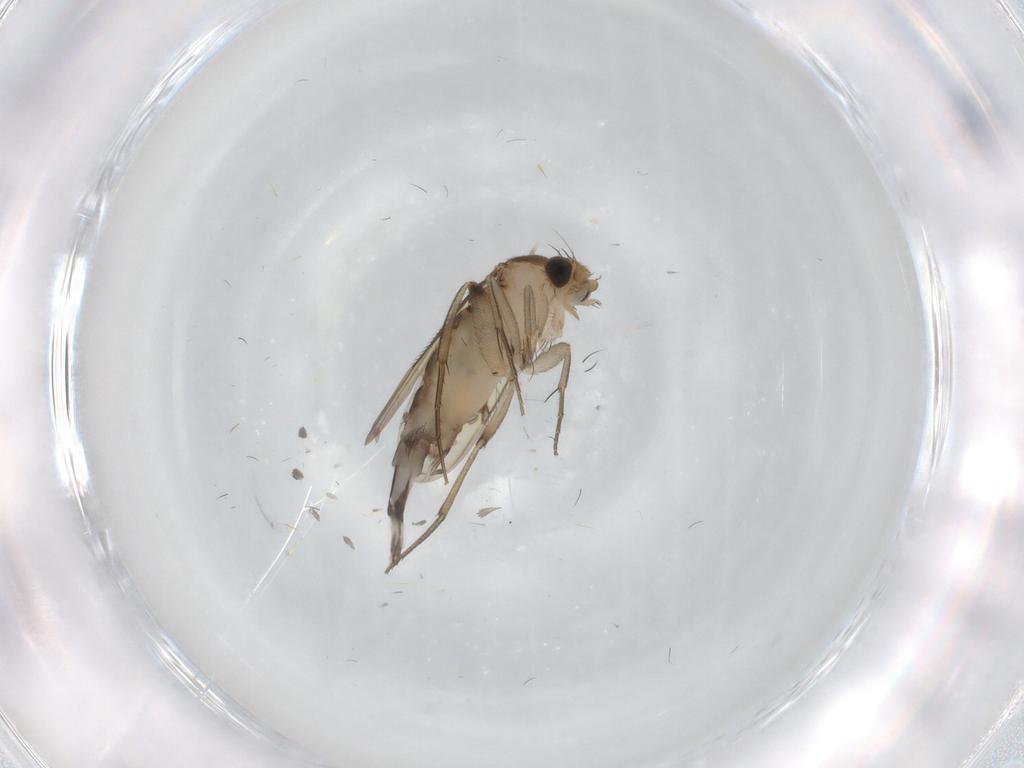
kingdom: Animalia
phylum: Arthropoda
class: Insecta
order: Diptera
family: Phoridae
